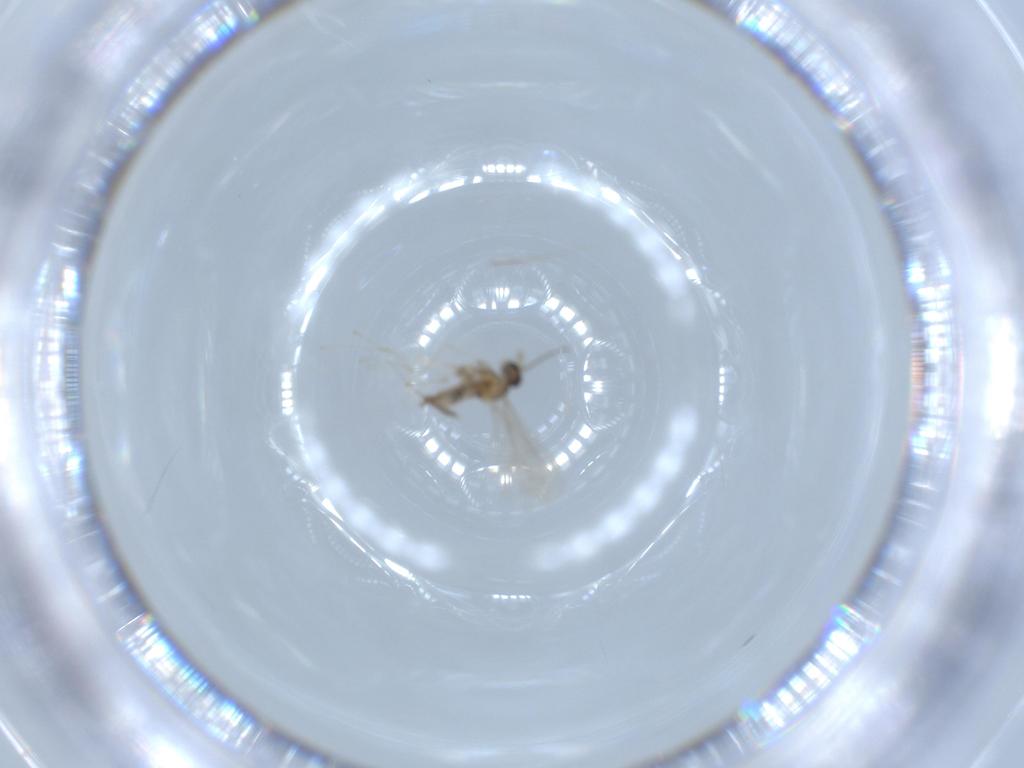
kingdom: Animalia
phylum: Arthropoda
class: Insecta
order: Diptera
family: Cecidomyiidae
